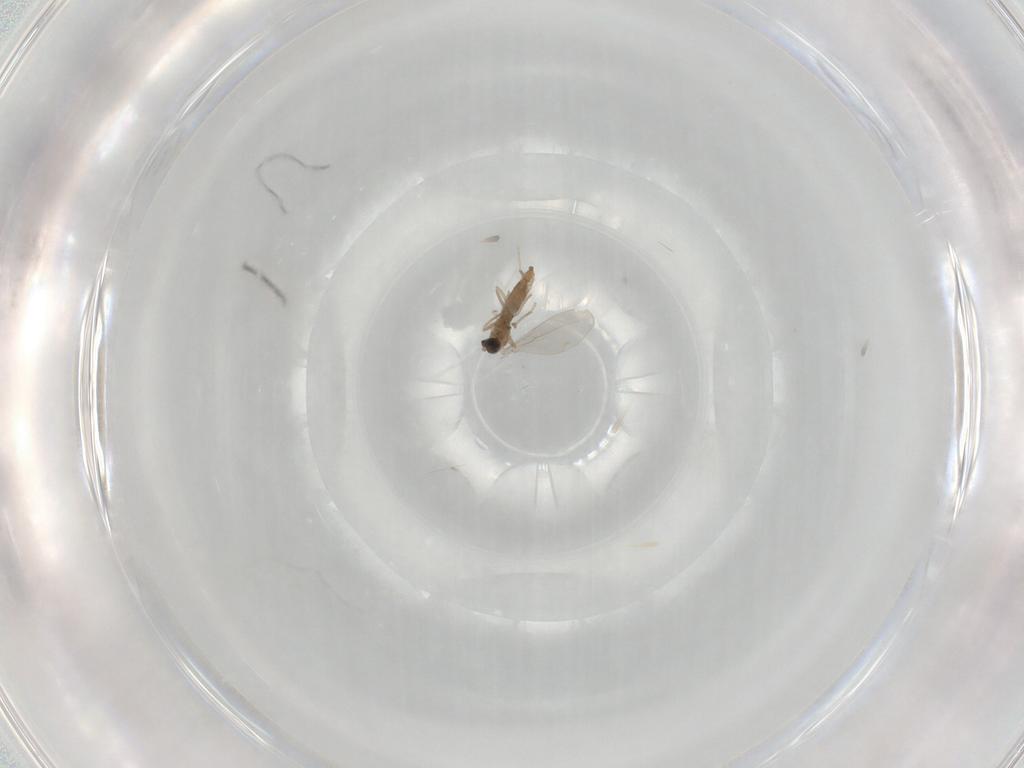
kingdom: Animalia
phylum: Arthropoda
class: Insecta
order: Diptera
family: Cecidomyiidae
